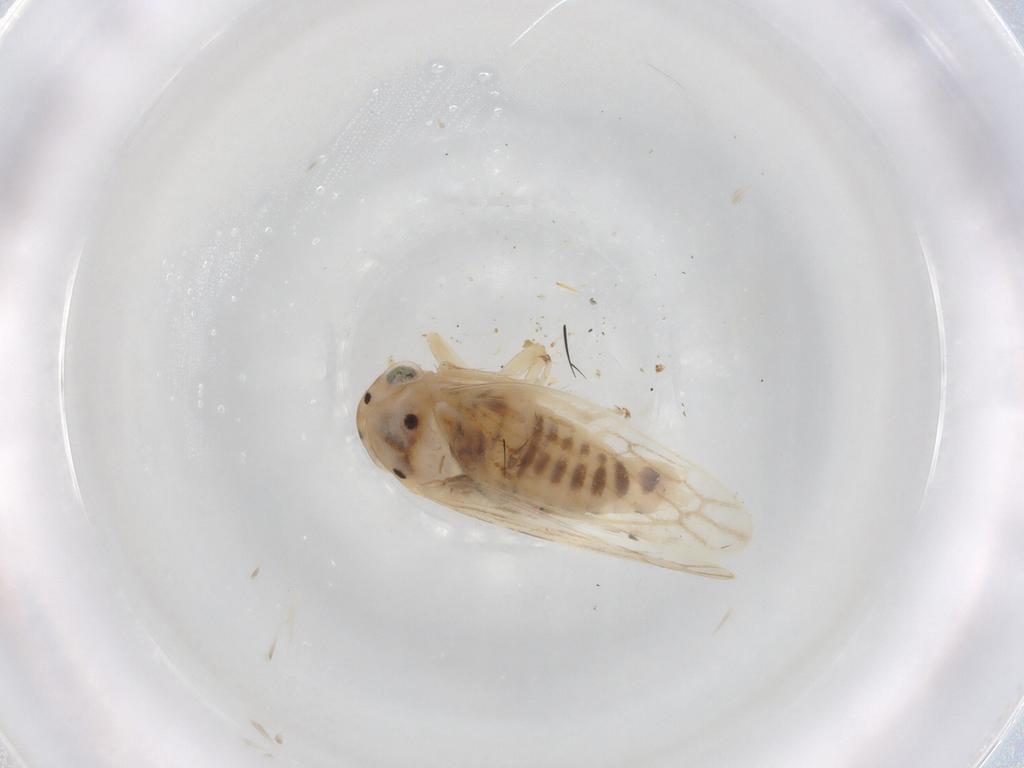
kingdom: Animalia
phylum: Arthropoda
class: Insecta
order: Hemiptera
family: Cicadellidae
